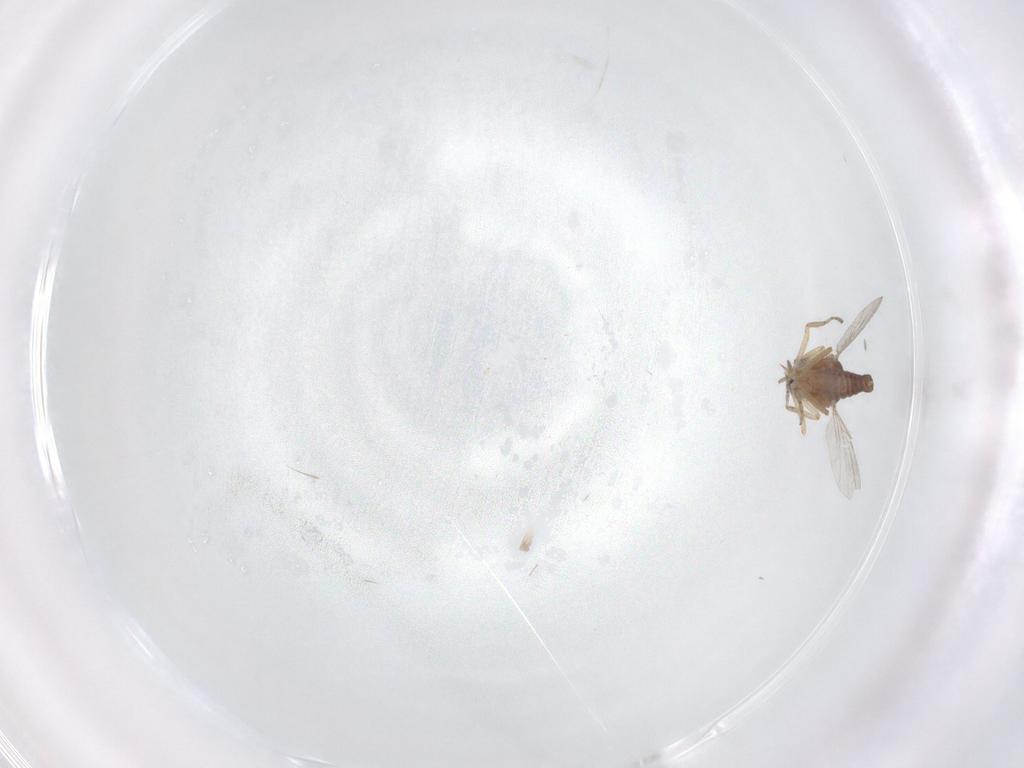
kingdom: Animalia
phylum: Arthropoda
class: Insecta
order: Diptera
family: Ceratopogonidae
